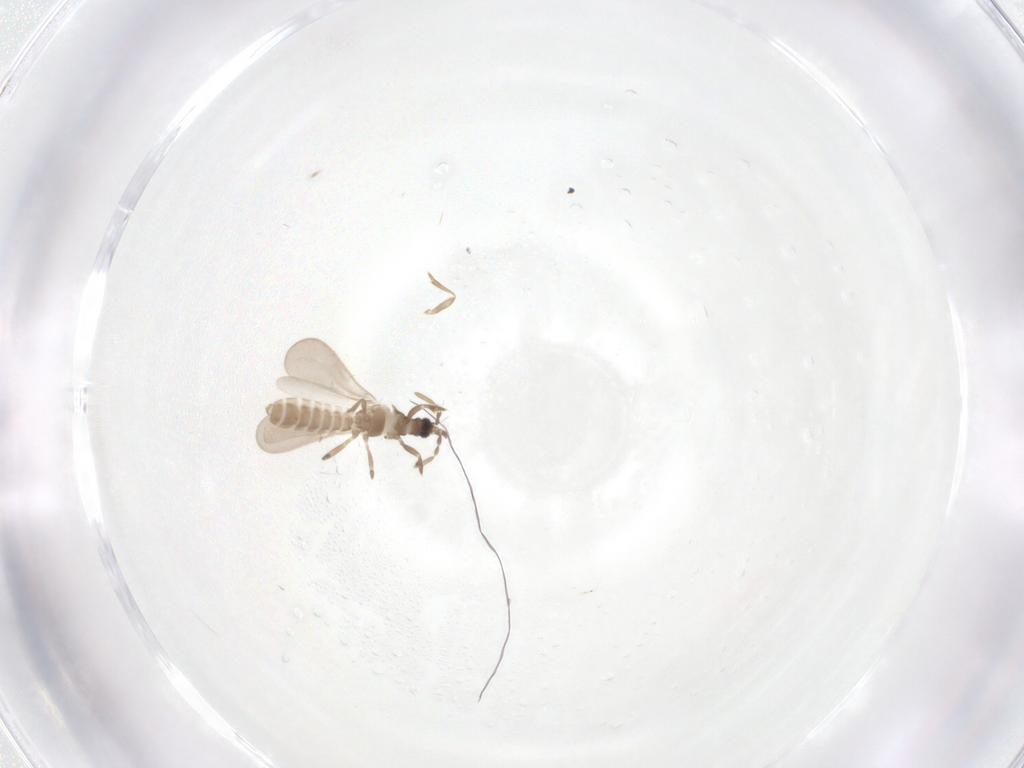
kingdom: Animalia
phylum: Arthropoda
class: Insecta
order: Hemiptera
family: Enicocephalidae
